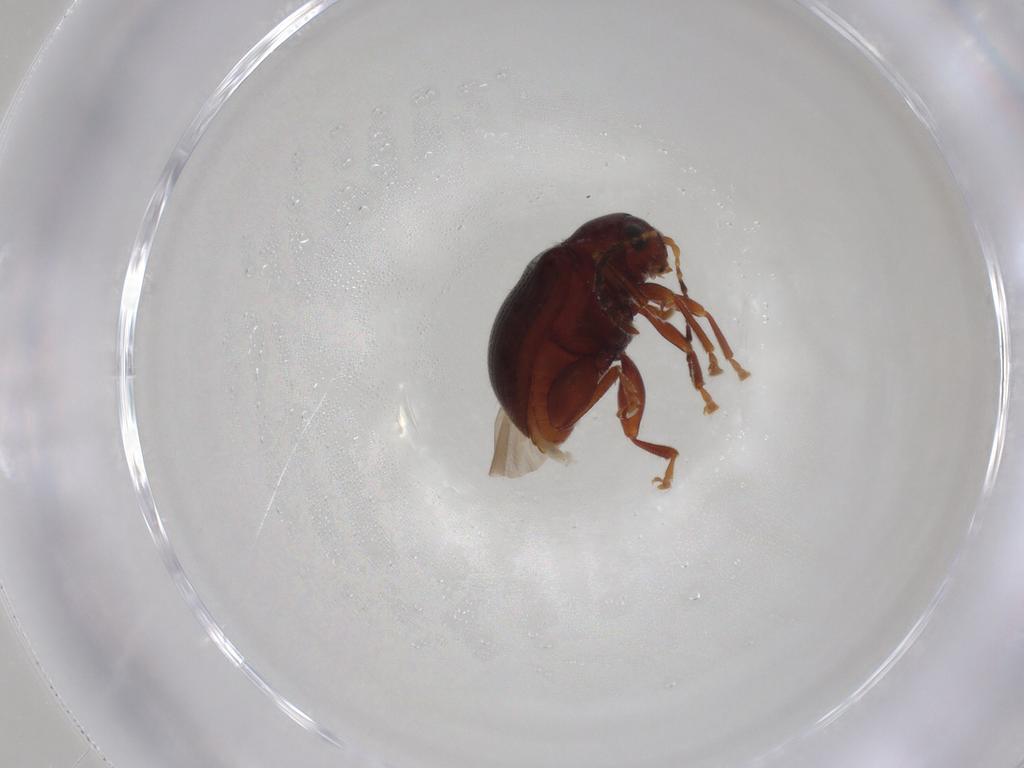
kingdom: Animalia
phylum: Arthropoda
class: Insecta
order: Coleoptera
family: Chrysomelidae
